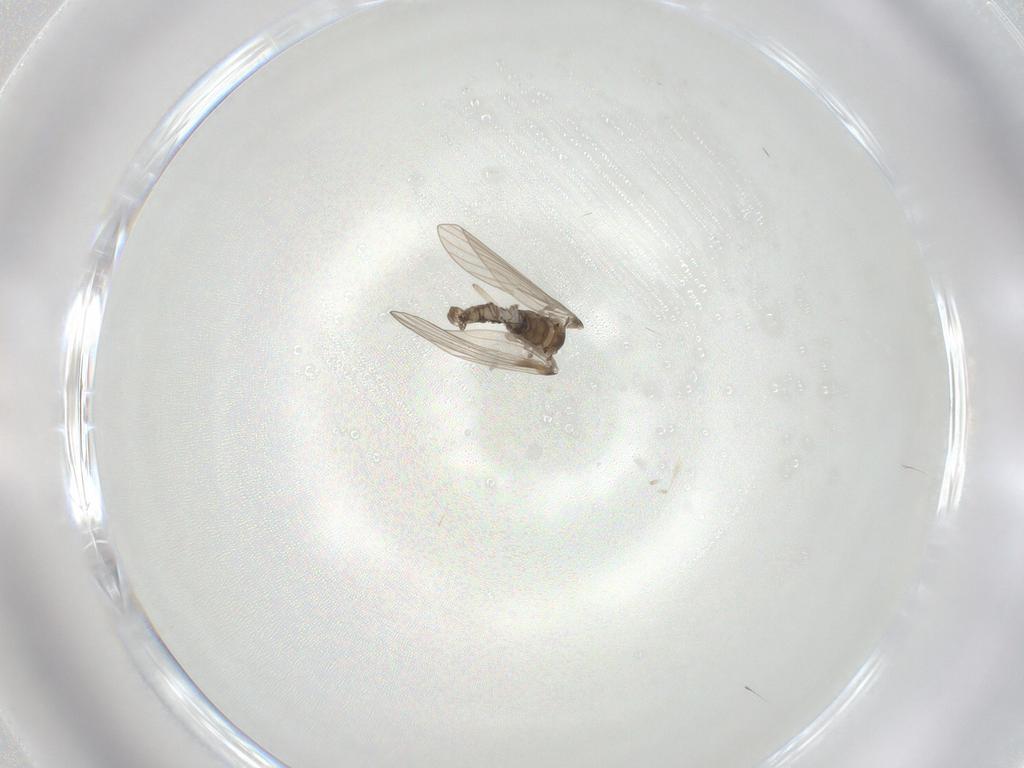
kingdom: Animalia
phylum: Arthropoda
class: Insecta
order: Diptera
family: Psychodidae
